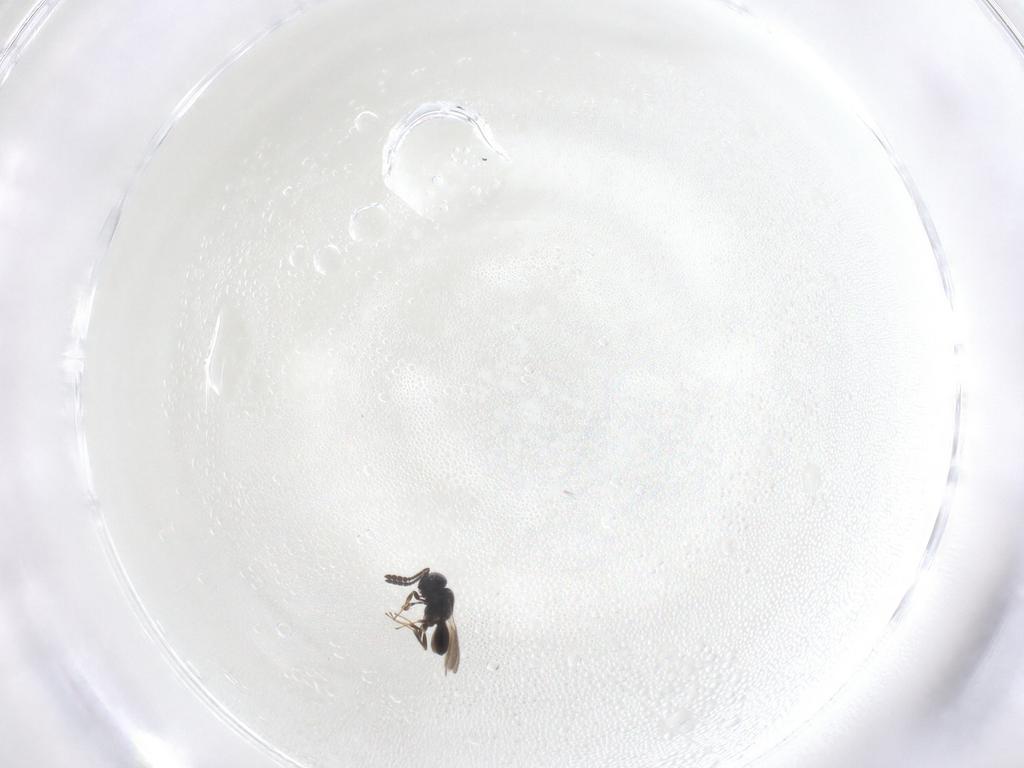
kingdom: Animalia
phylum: Arthropoda
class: Insecta
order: Hymenoptera
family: Scelionidae
